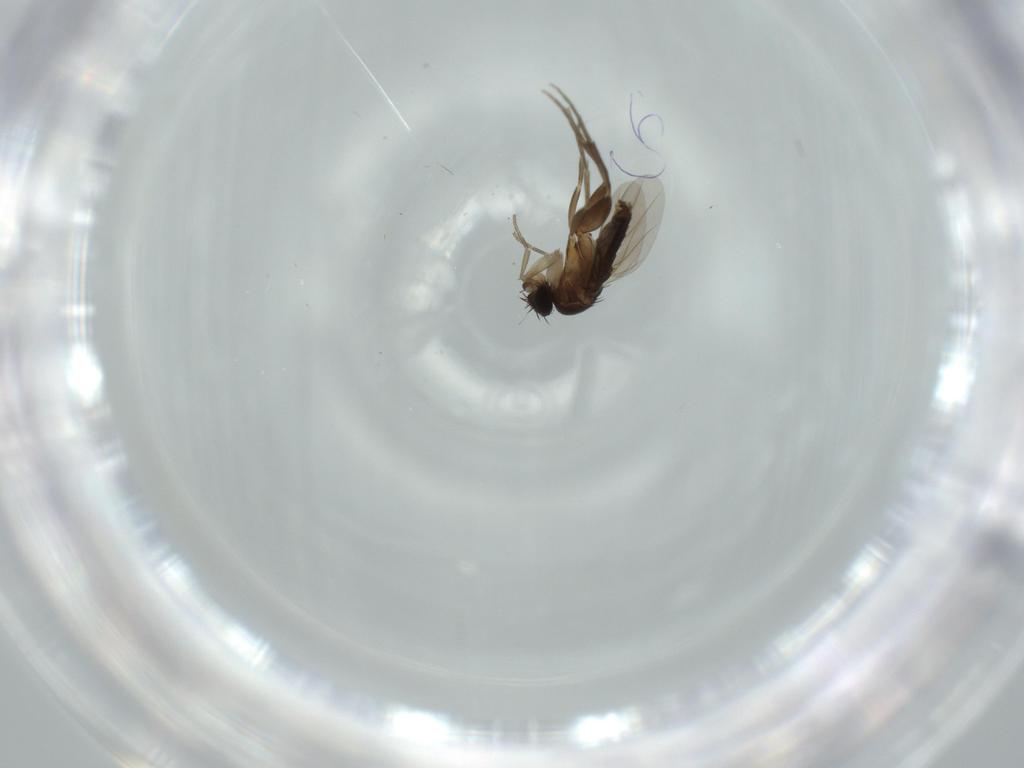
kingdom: Animalia
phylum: Arthropoda
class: Insecta
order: Diptera
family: Phoridae
